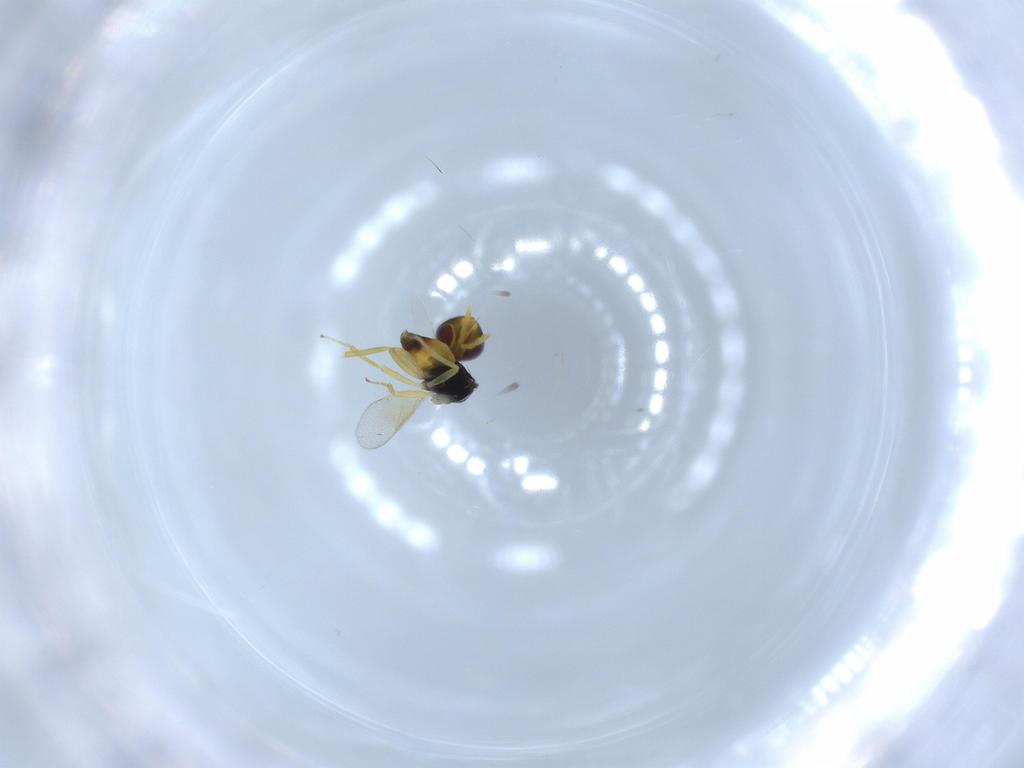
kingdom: Animalia
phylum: Arthropoda
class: Insecta
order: Hymenoptera
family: Aphelinidae
